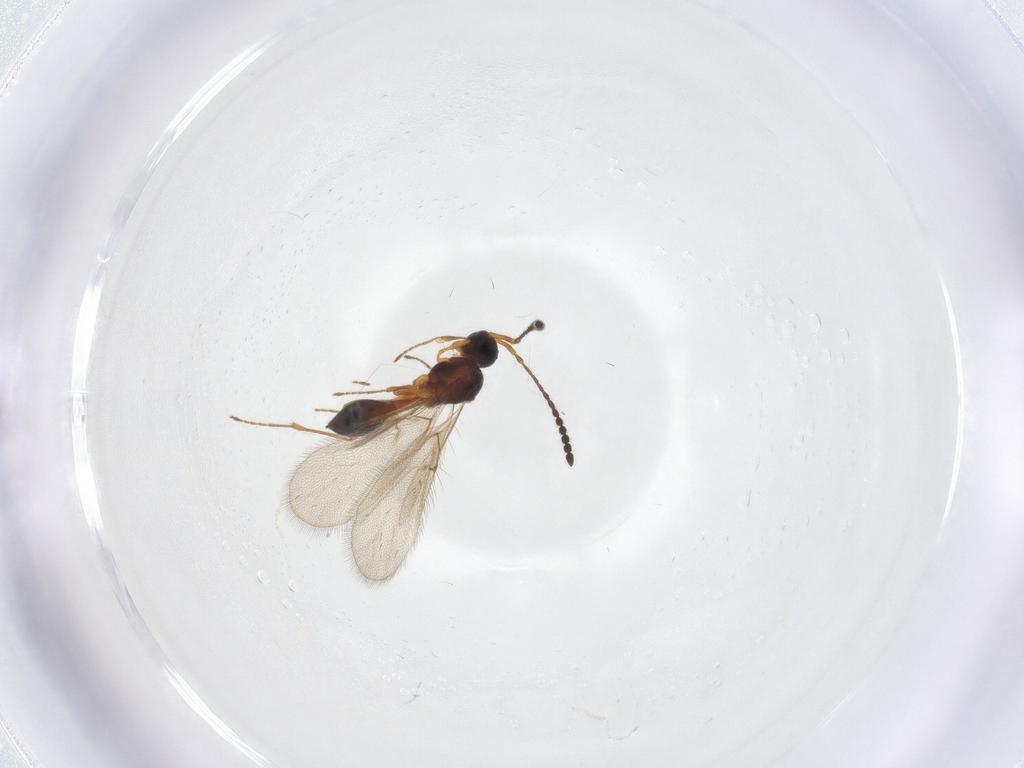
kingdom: Animalia
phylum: Arthropoda
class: Insecta
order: Hymenoptera
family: Diapriidae
